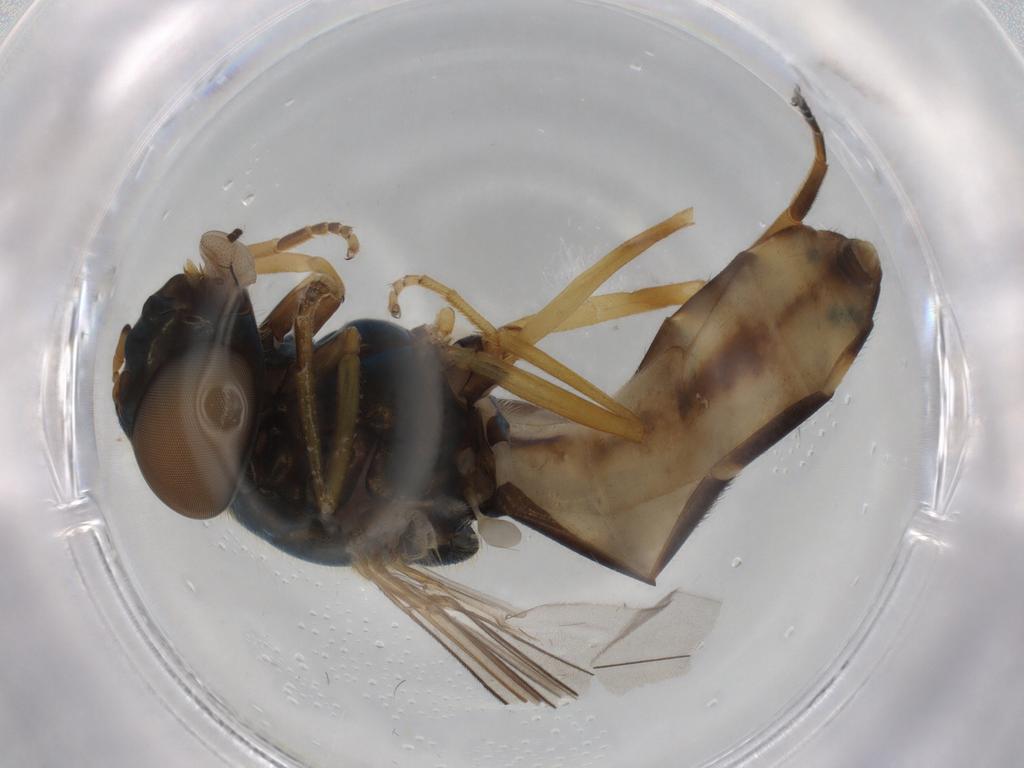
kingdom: Animalia
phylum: Arthropoda
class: Insecta
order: Diptera
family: Syrphidae
